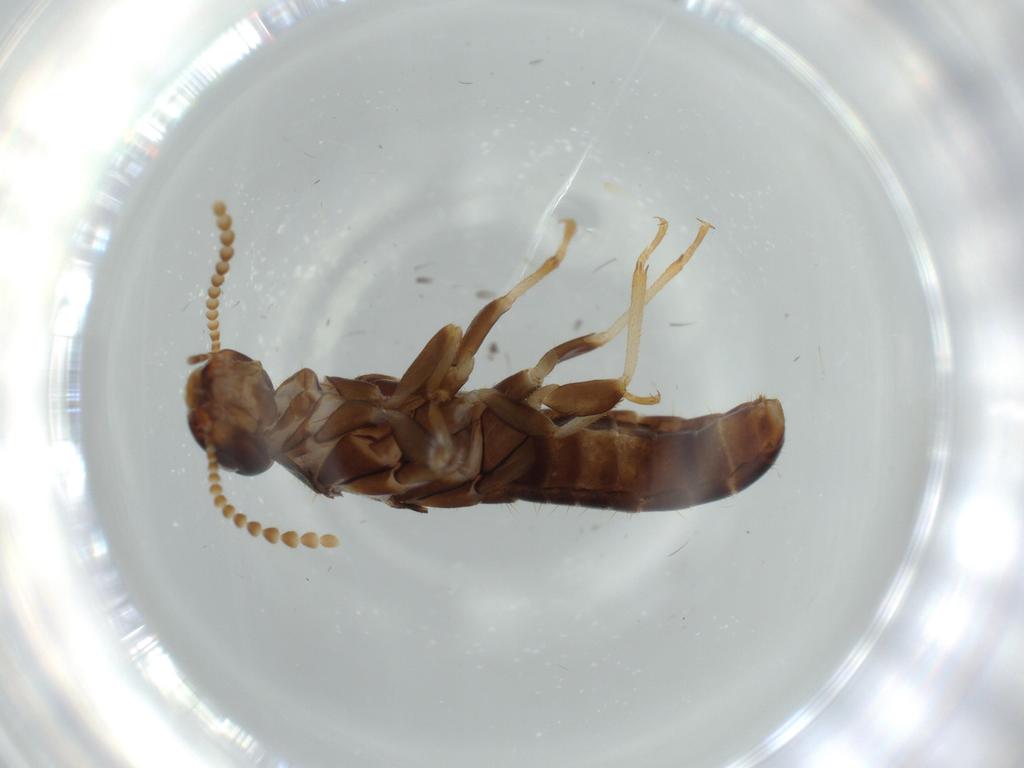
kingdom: Animalia
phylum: Arthropoda
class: Insecta
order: Blattodea
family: Kalotermitidae
